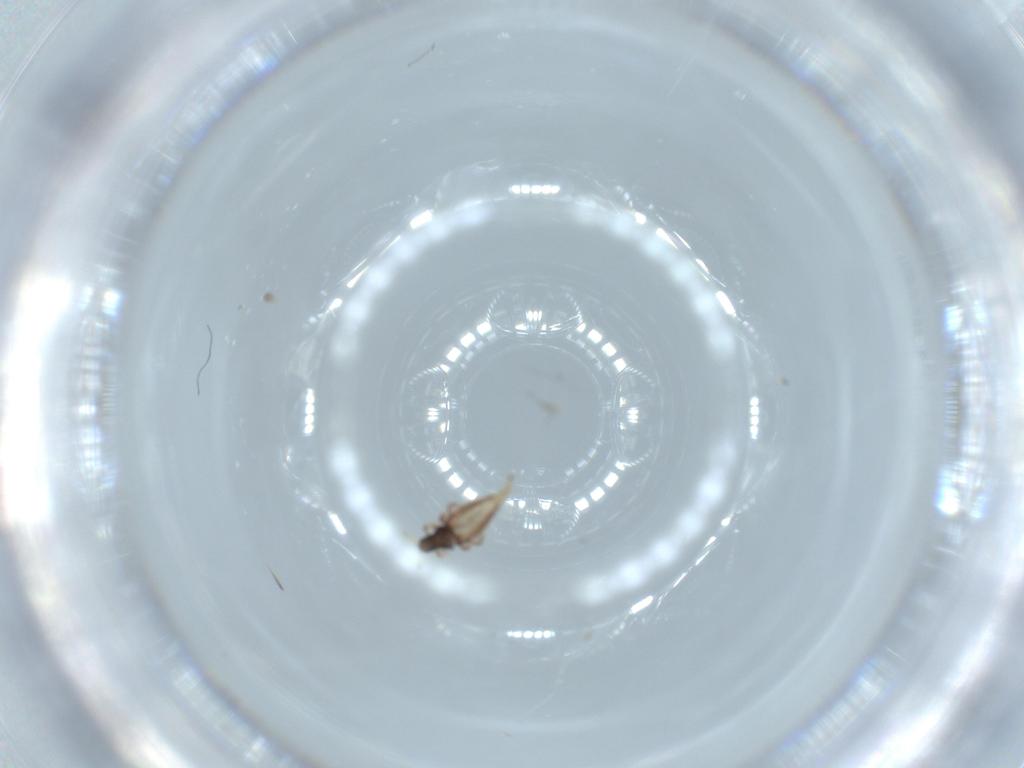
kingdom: Animalia
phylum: Arthropoda
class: Insecta
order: Thysanoptera
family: Phlaeothripidae
